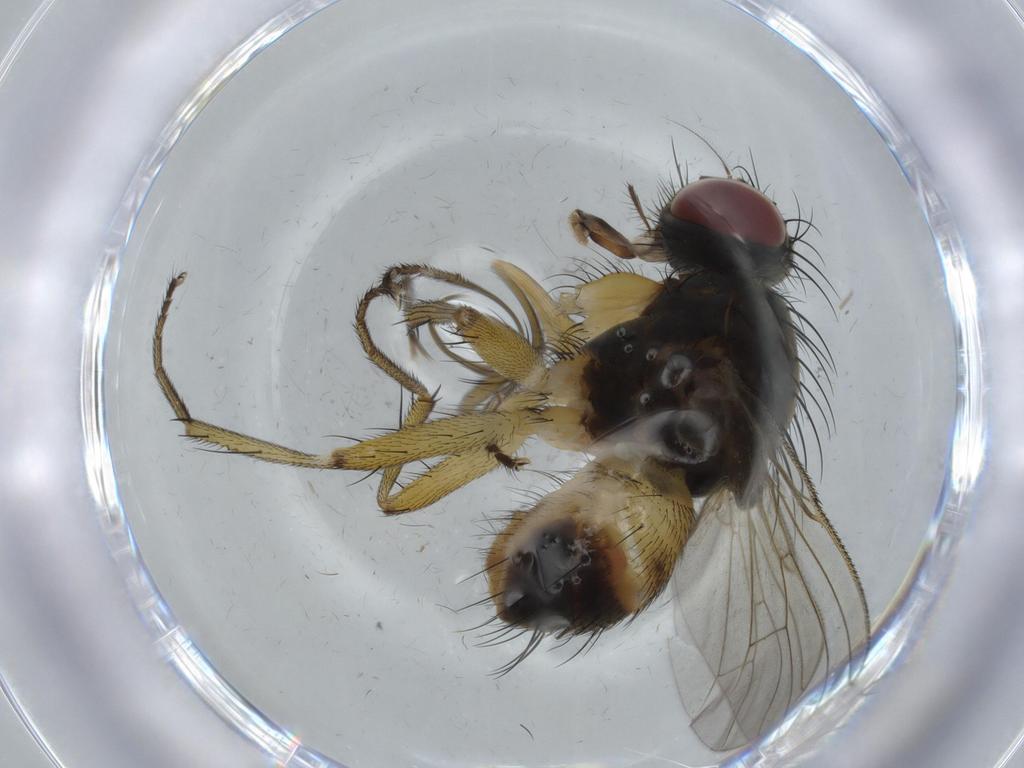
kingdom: Animalia
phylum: Arthropoda
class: Insecta
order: Diptera
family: Muscidae
